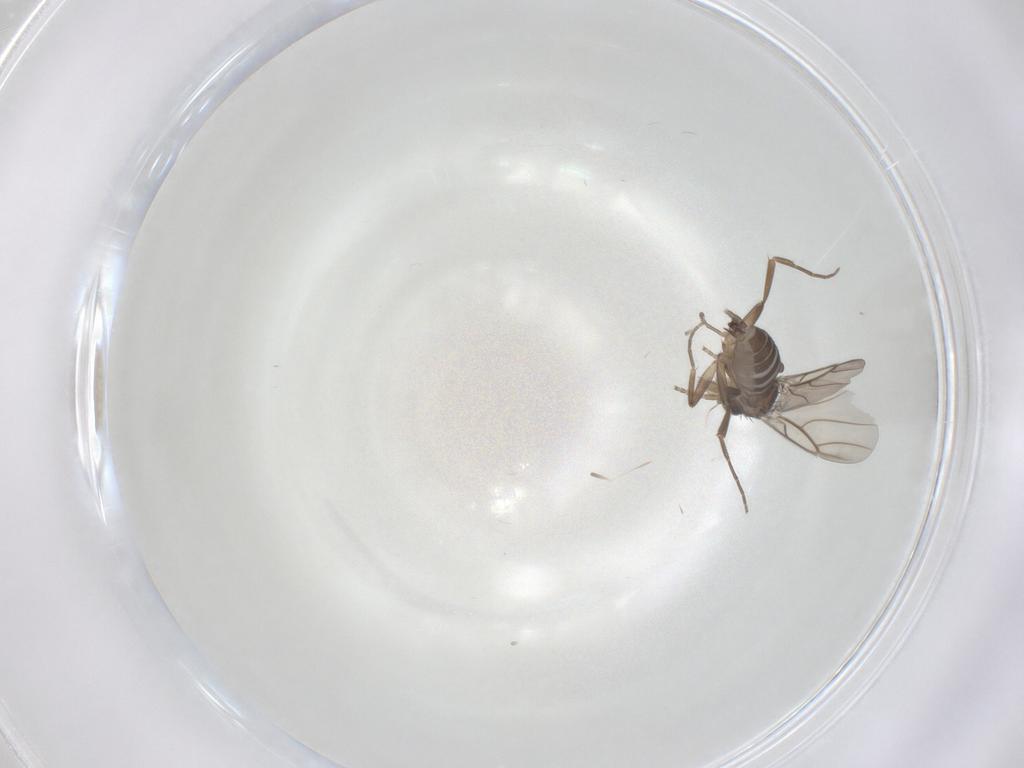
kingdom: Animalia
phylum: Arthropoda
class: Insecta
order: Diptera
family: Phoridae
